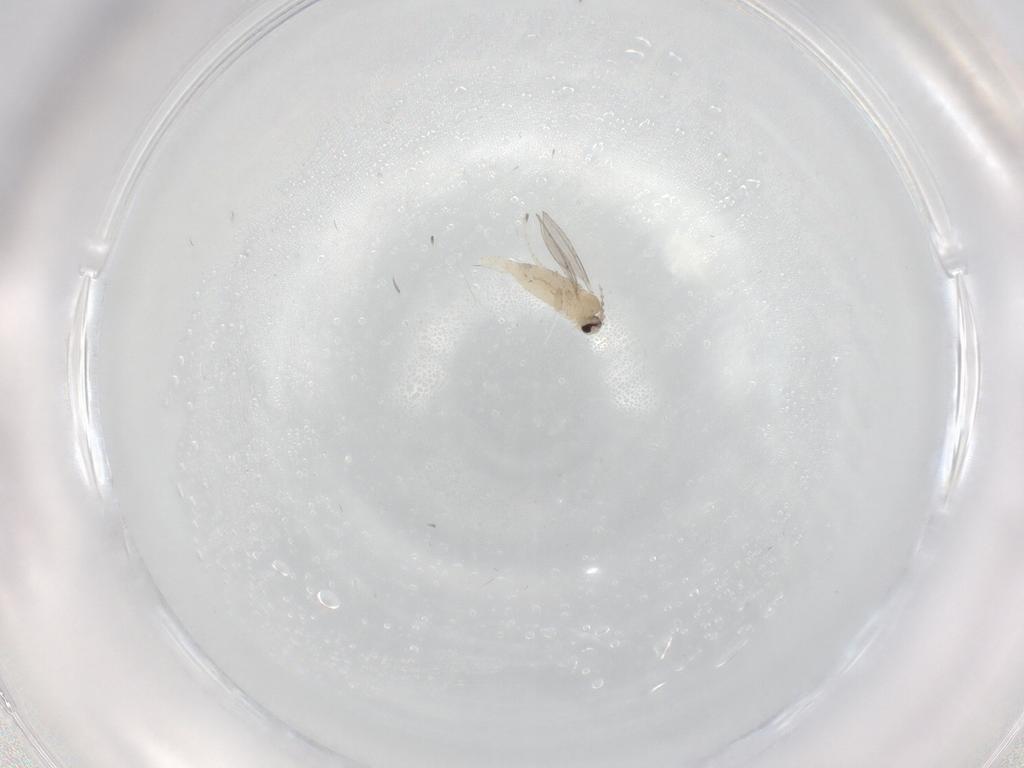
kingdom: Animalia
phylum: Arthropoda
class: Insecta
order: Diptera
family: Cecidomyiidae
